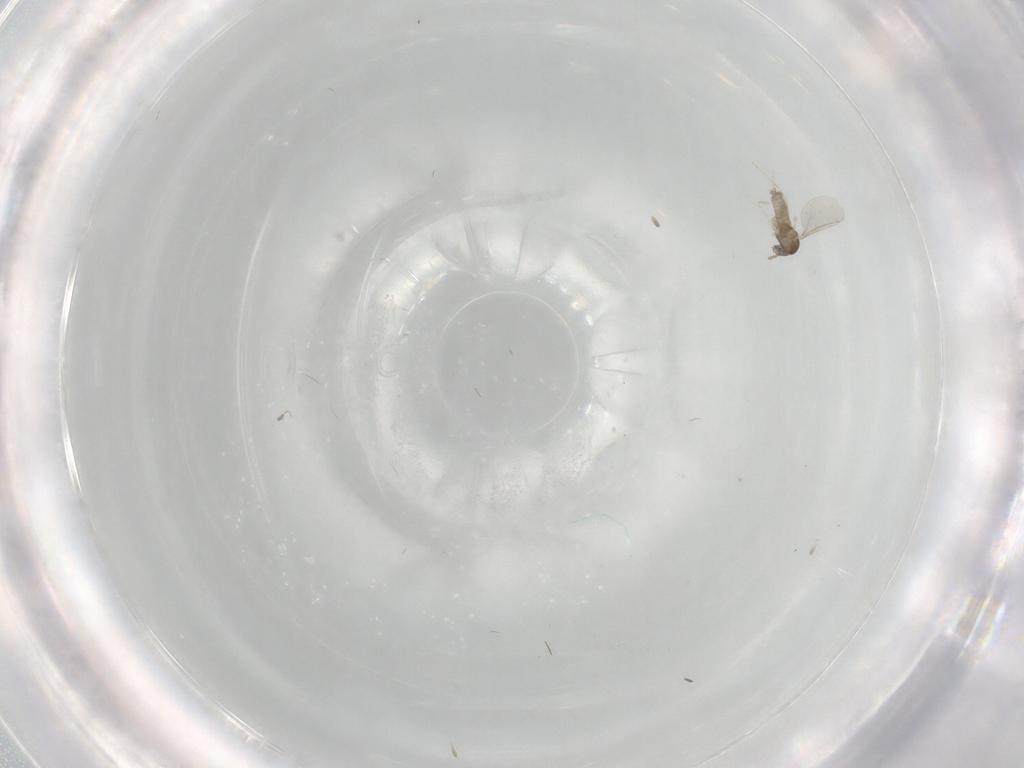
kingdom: Animalia
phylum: Arthropoda
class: Insecta
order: Diptera
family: Cecidomyiidae
